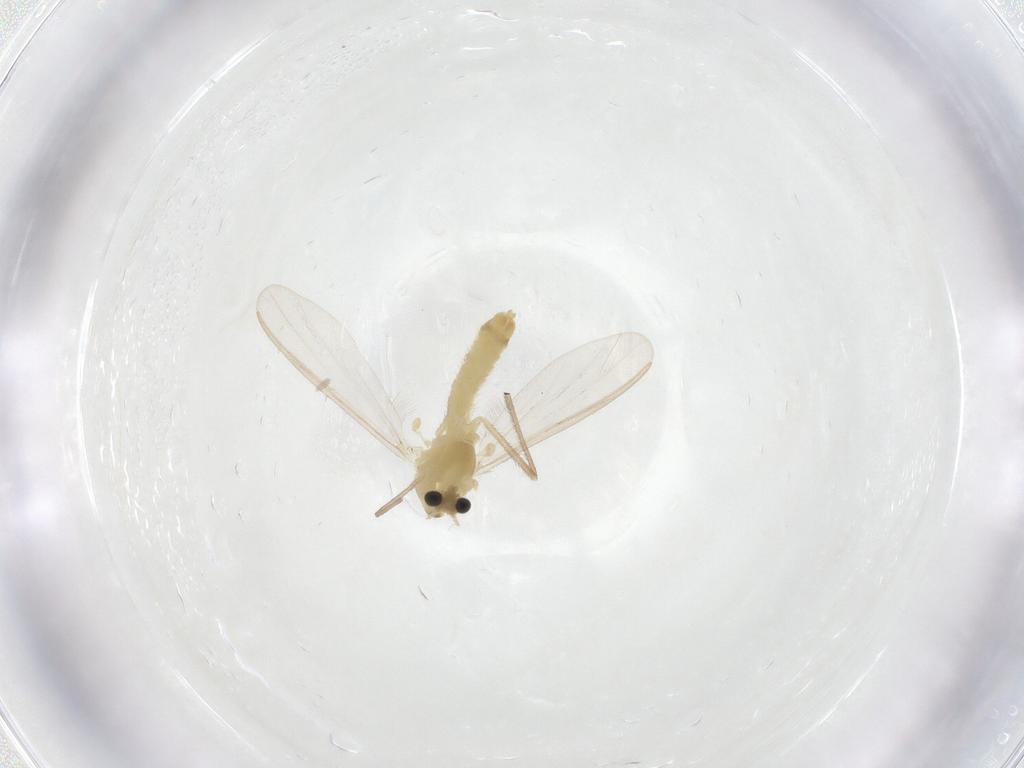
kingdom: Animalia
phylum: Arthropoda
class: Insecta
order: Diptera
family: Chironomidae
